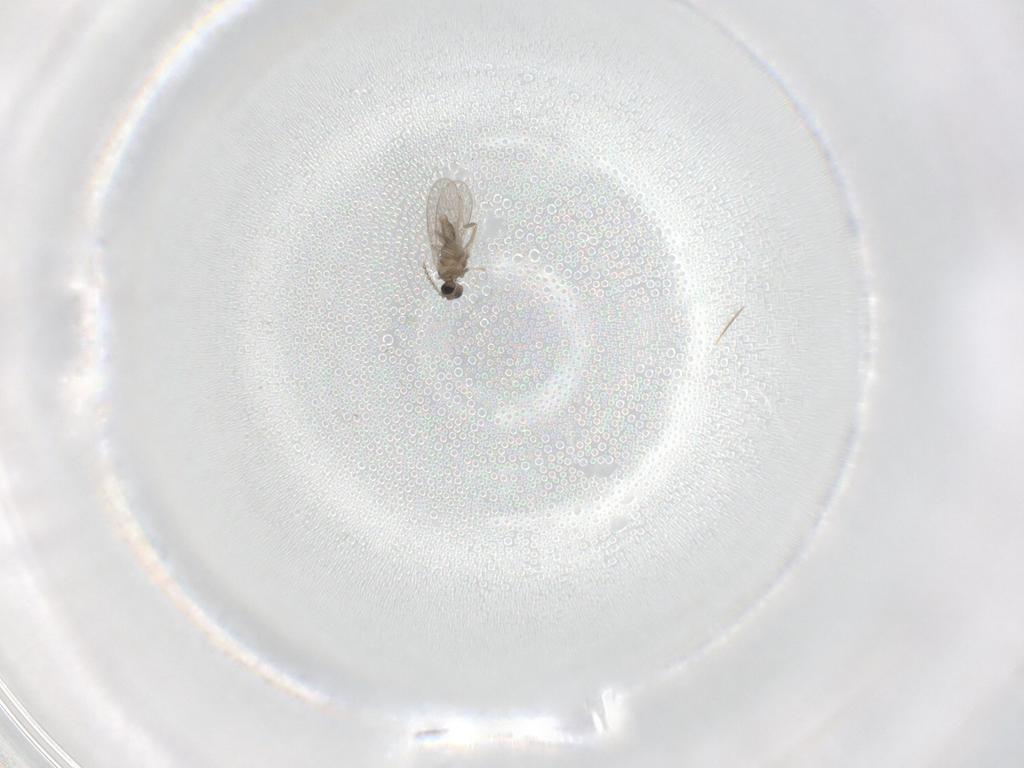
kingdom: Animalia
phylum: Arthropoda
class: Insecta
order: Diptera
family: Cecidomyiidae
